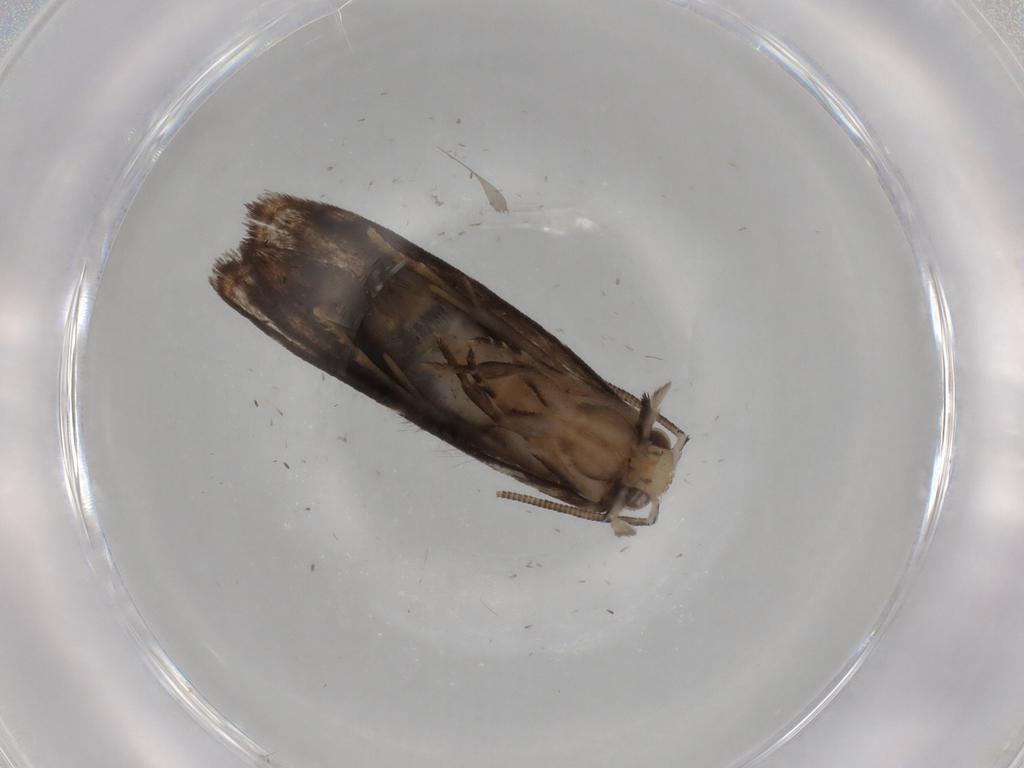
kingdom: Animalia
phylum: Arthropoda
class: Insecta
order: Lepidoptera
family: Dryadaulidae
